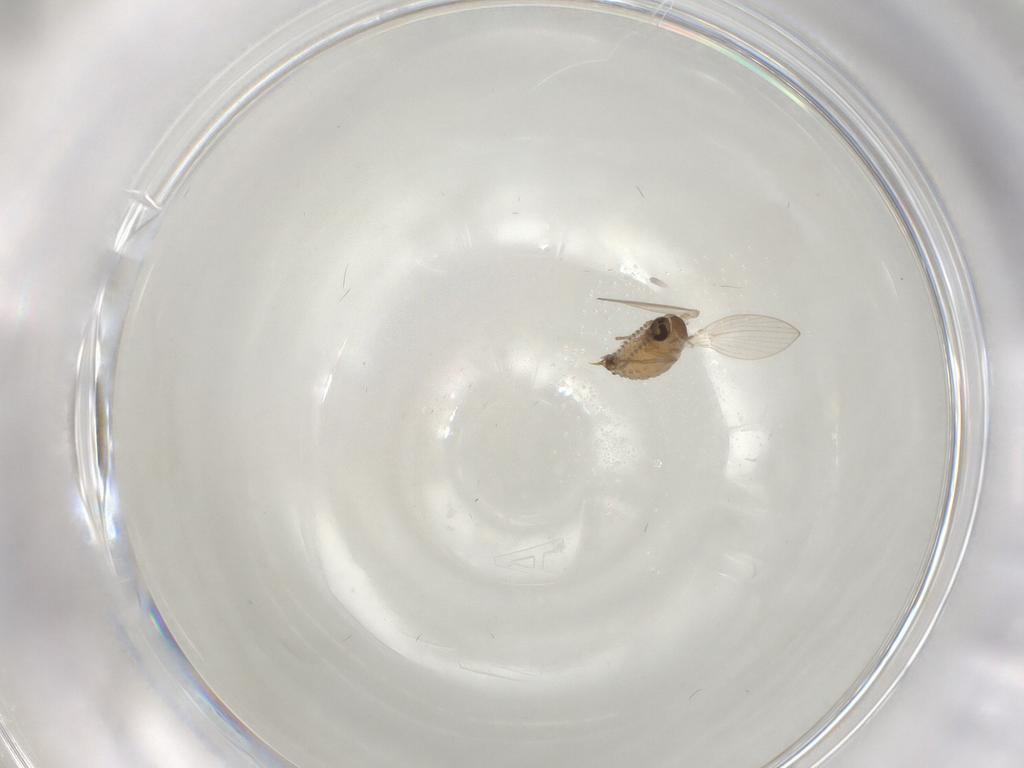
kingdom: Animalia
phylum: Arthropoda
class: Insecta
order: Diptera
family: Psychodidae
